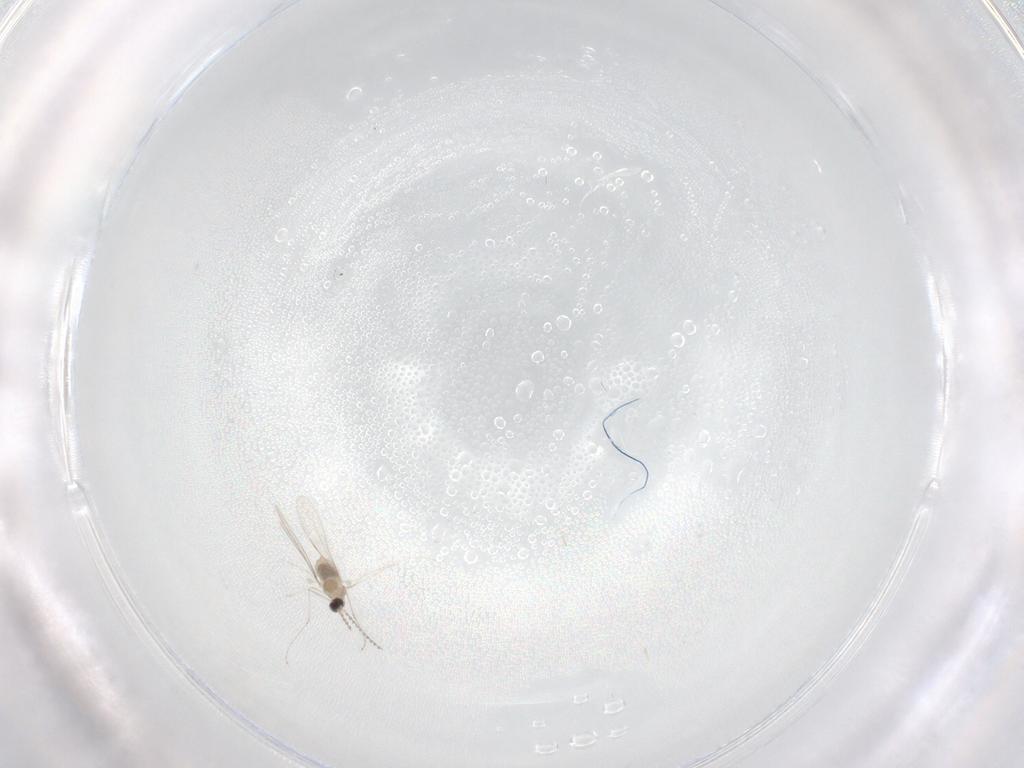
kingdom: Animalia
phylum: Arthropoda
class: Insecta
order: Diptera
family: Cecidomyiidae
